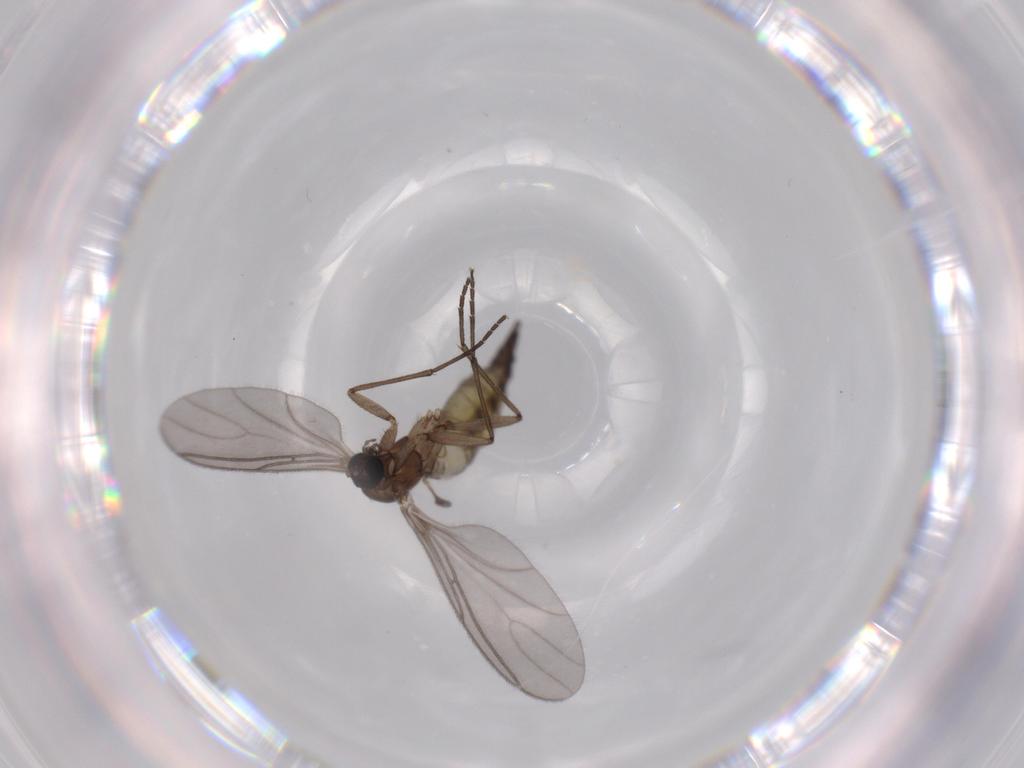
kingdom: Animalia
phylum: Arthropoda
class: Insecta
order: Diptera
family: Sciaridae
